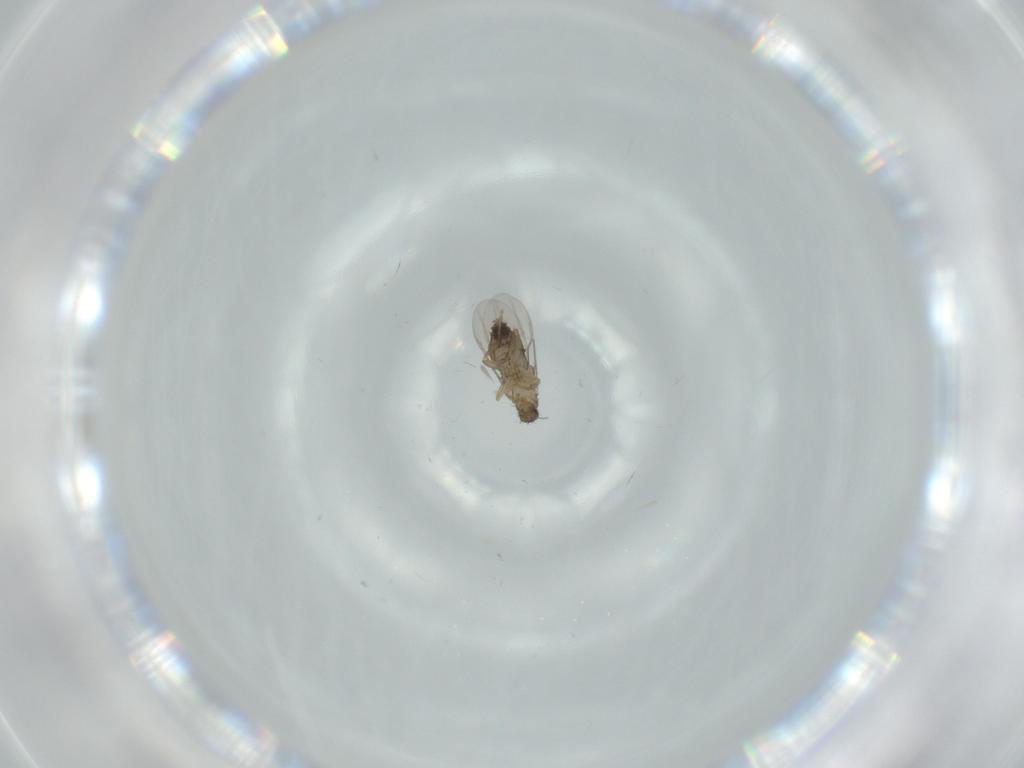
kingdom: Animalia
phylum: Arthropoda
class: Insecta
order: Diptera
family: Phoridae
